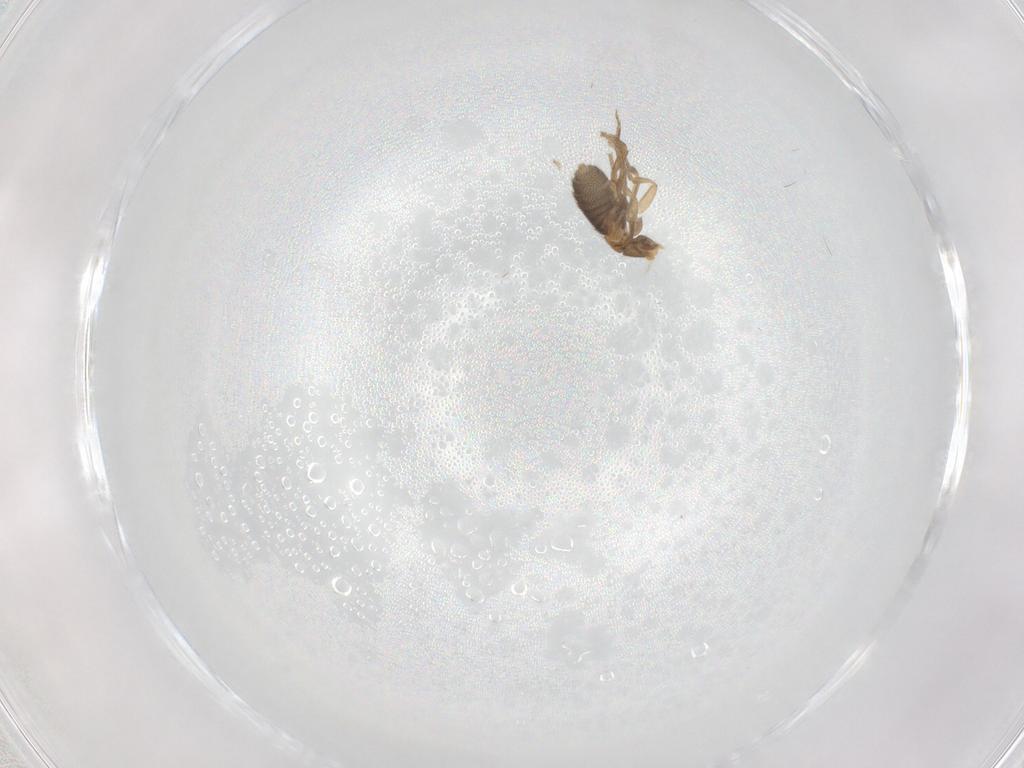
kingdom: Animalia
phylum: Arthropoda
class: Insecta
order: Diptera
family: Phoridae
